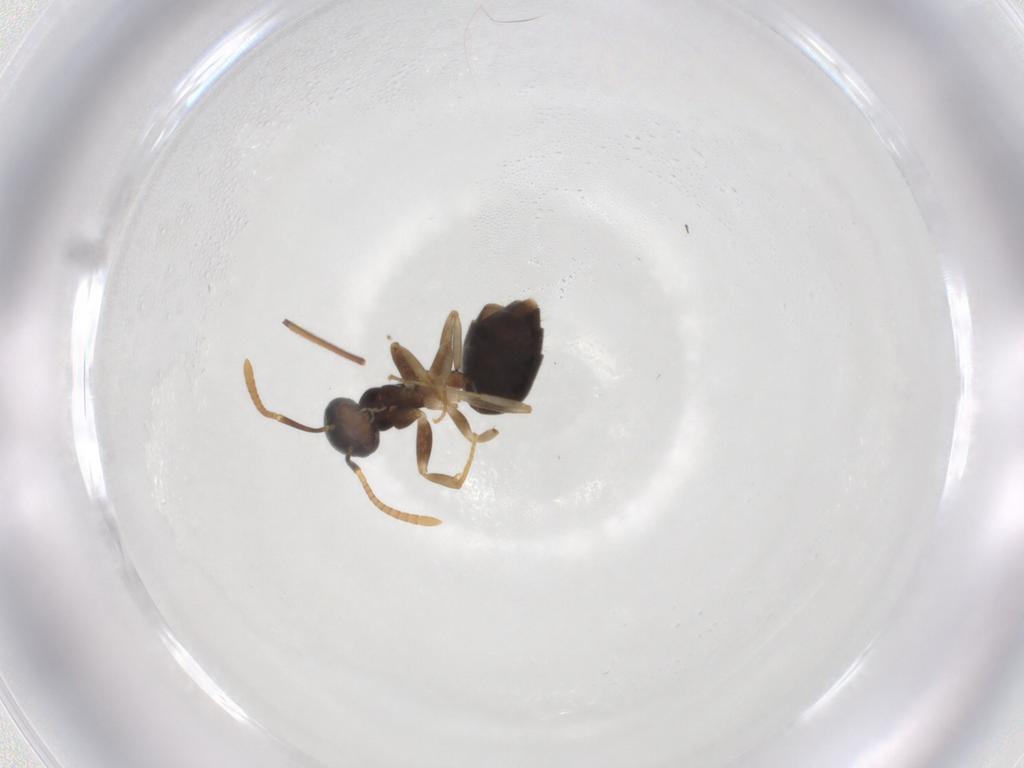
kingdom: Animalia
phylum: Arthropoda
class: Insecta
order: Hymenoptera
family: Formicidae
